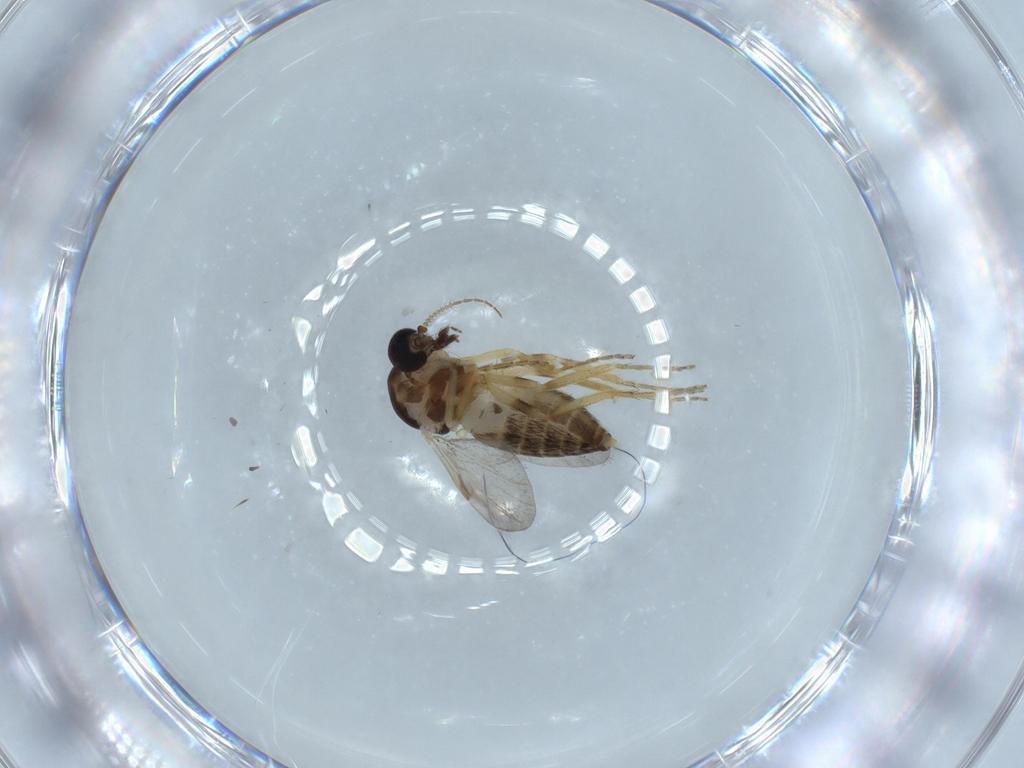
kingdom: Animalia
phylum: Arthropoda
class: Insecta
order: Diptera
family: Ceratopogonidae
